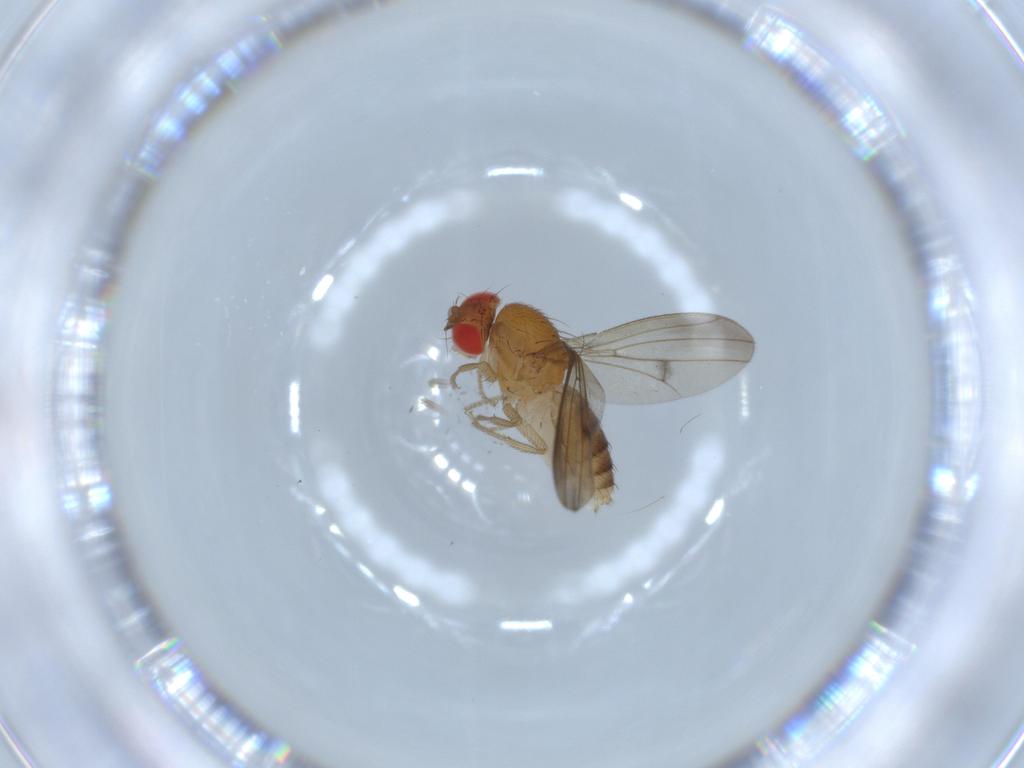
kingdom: Animalia
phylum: Arthropoda
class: Insecta
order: Diptera
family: Drosophilidae
